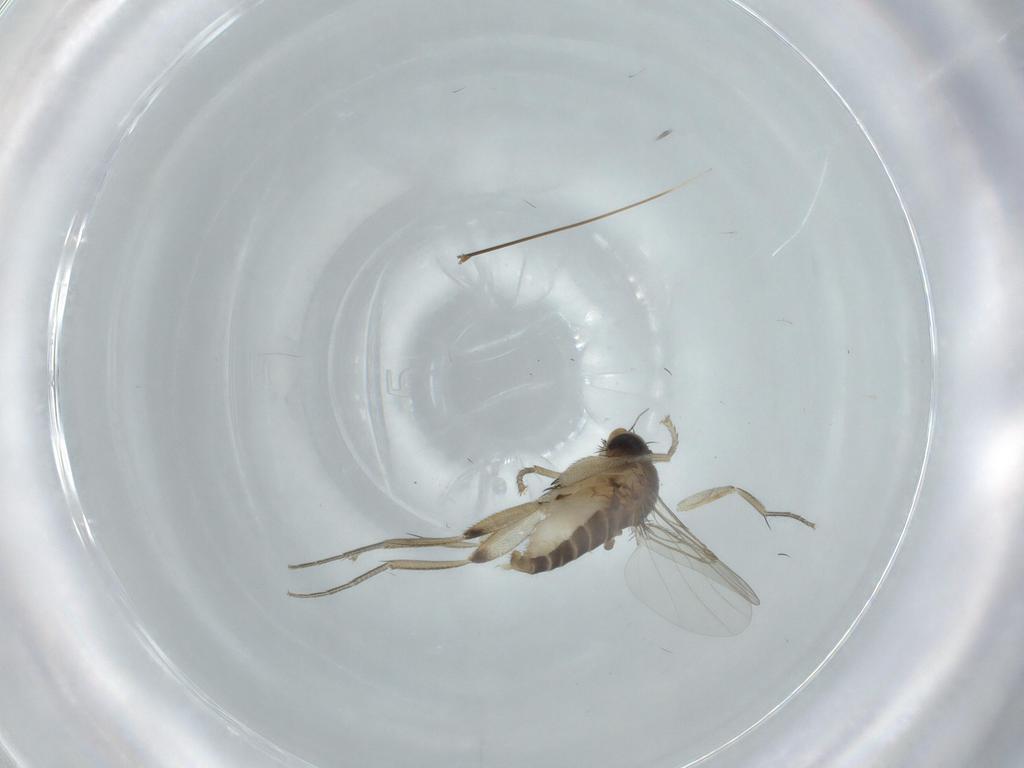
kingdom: Animalia
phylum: Arthropoda
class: Insecta
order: Diptera
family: Phoridae
